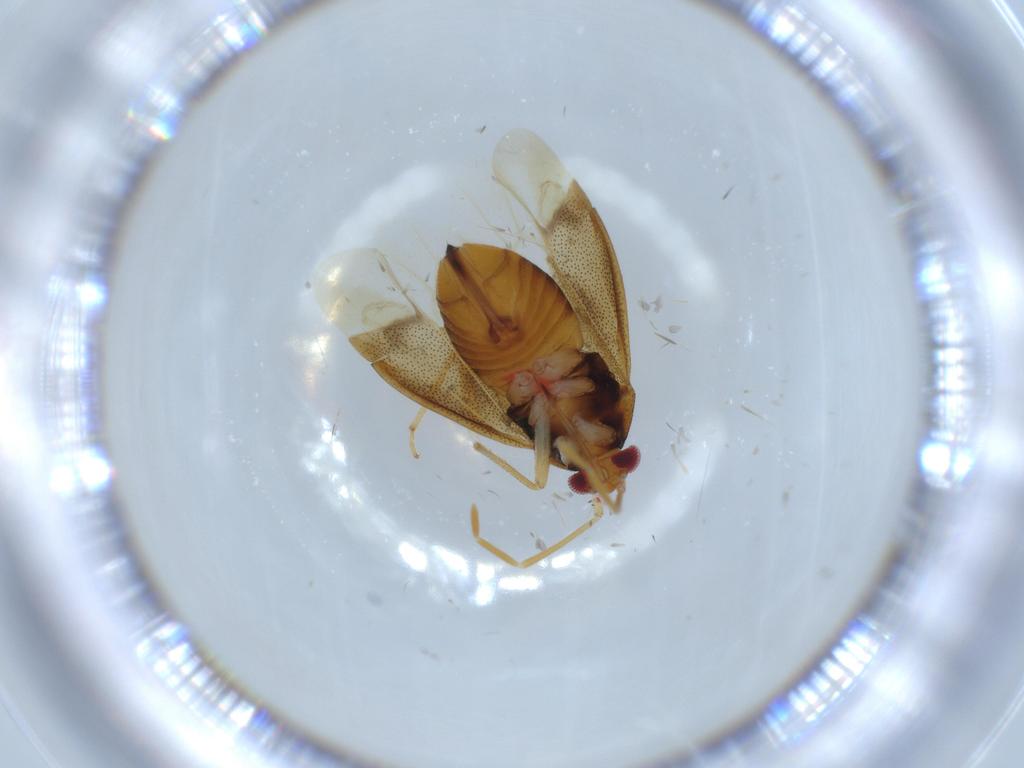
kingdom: Animalia
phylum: Arthropoda
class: Insecta
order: Hemiptera
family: Miridae
